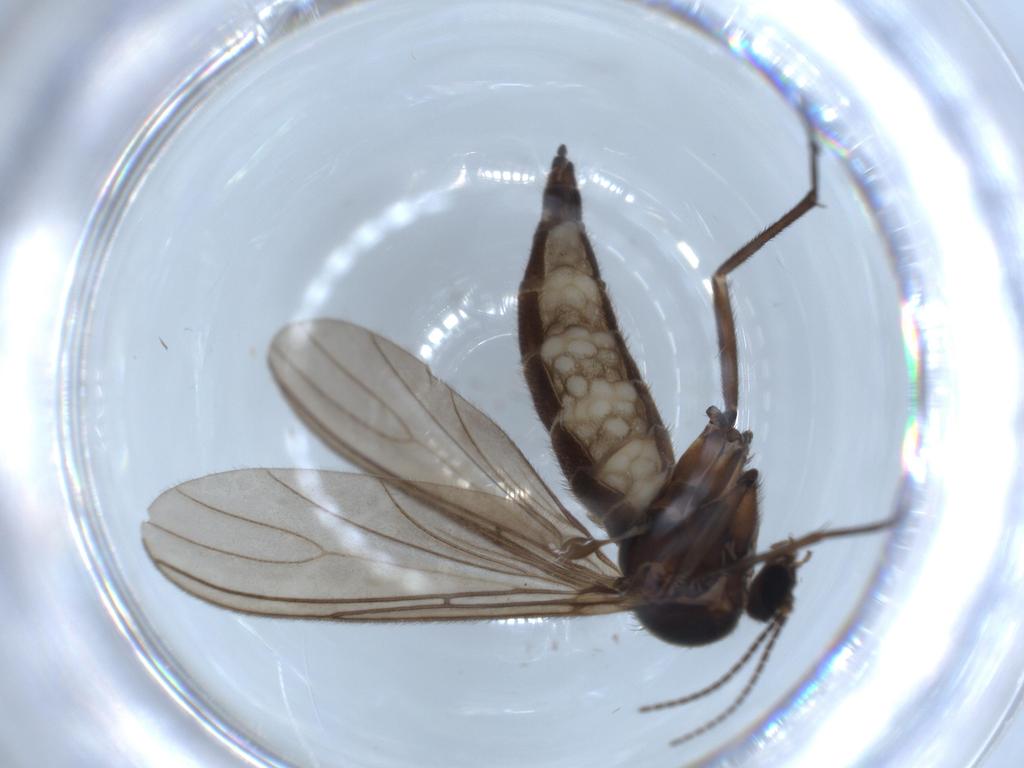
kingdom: Animalia
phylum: Arthropoda
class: Insecta
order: Diptera
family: Sciaridae
